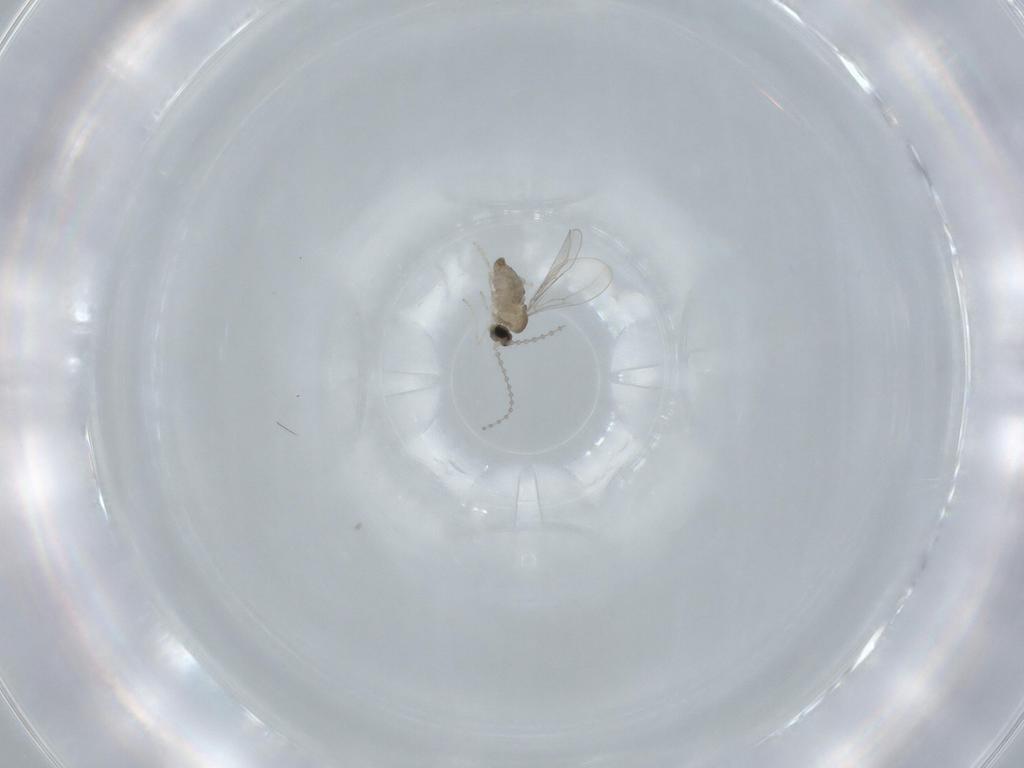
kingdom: Animalia
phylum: Arthropoda
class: Insecta
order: Diptera
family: Cecidomyiidae
